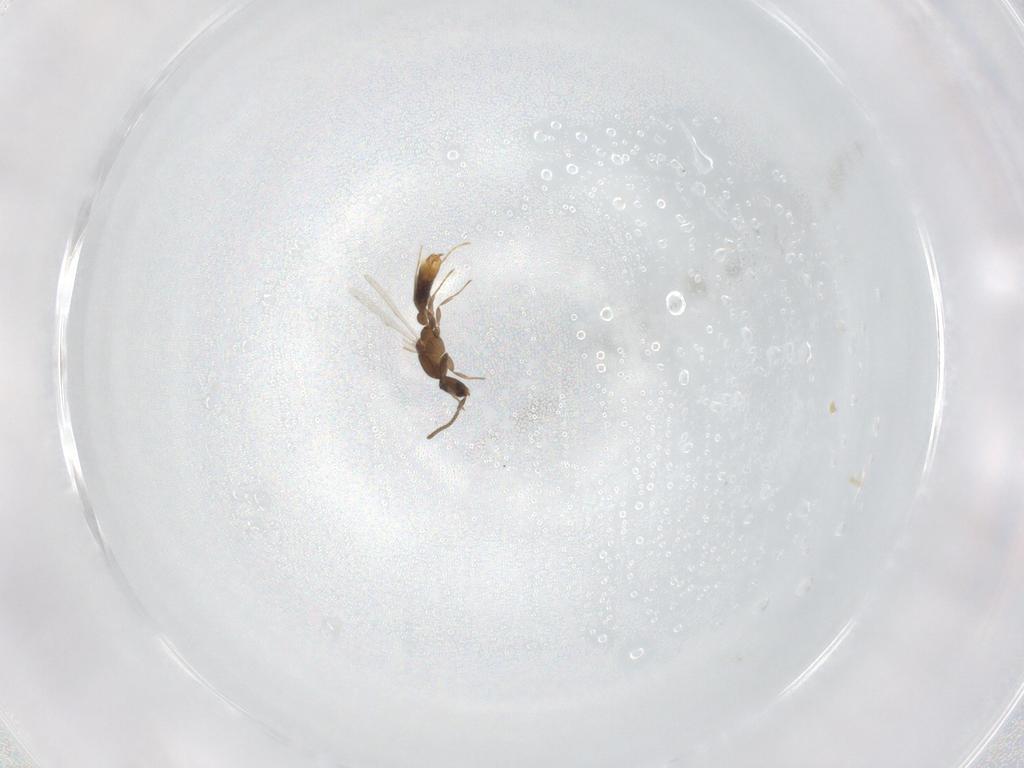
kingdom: Animalia
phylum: Arthropoda
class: Insecta
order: Hymenoptera
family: Formicidae
